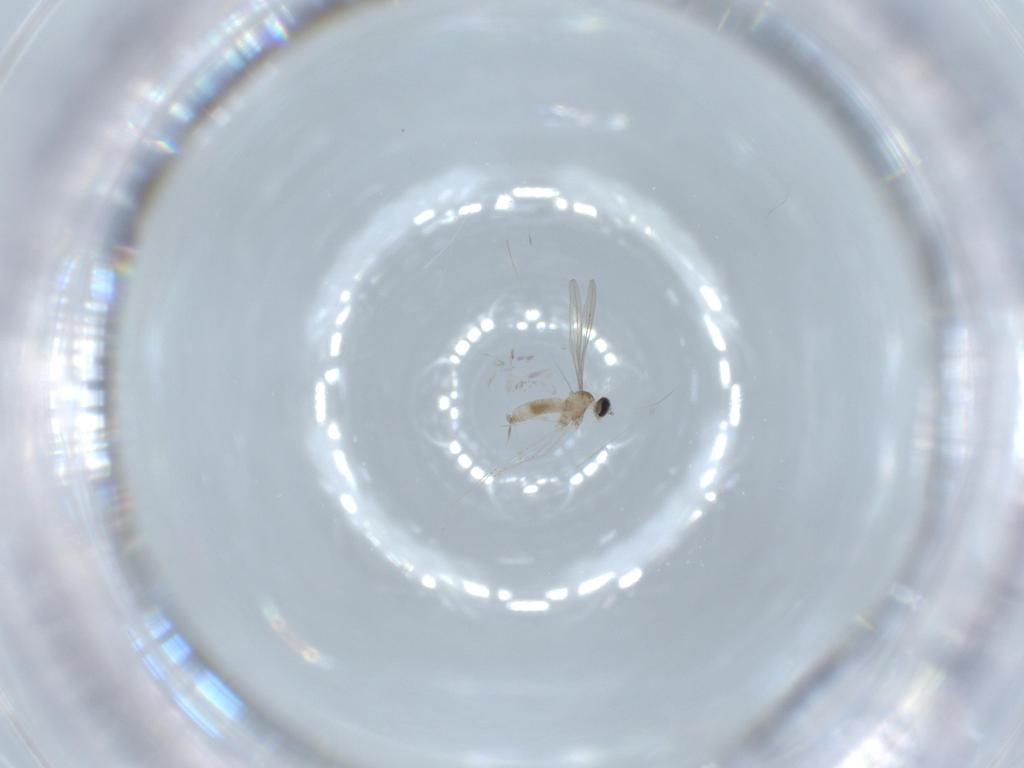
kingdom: Animalia
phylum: Arthropoda
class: Insecta
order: Diptera
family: Cecidomyiidae
